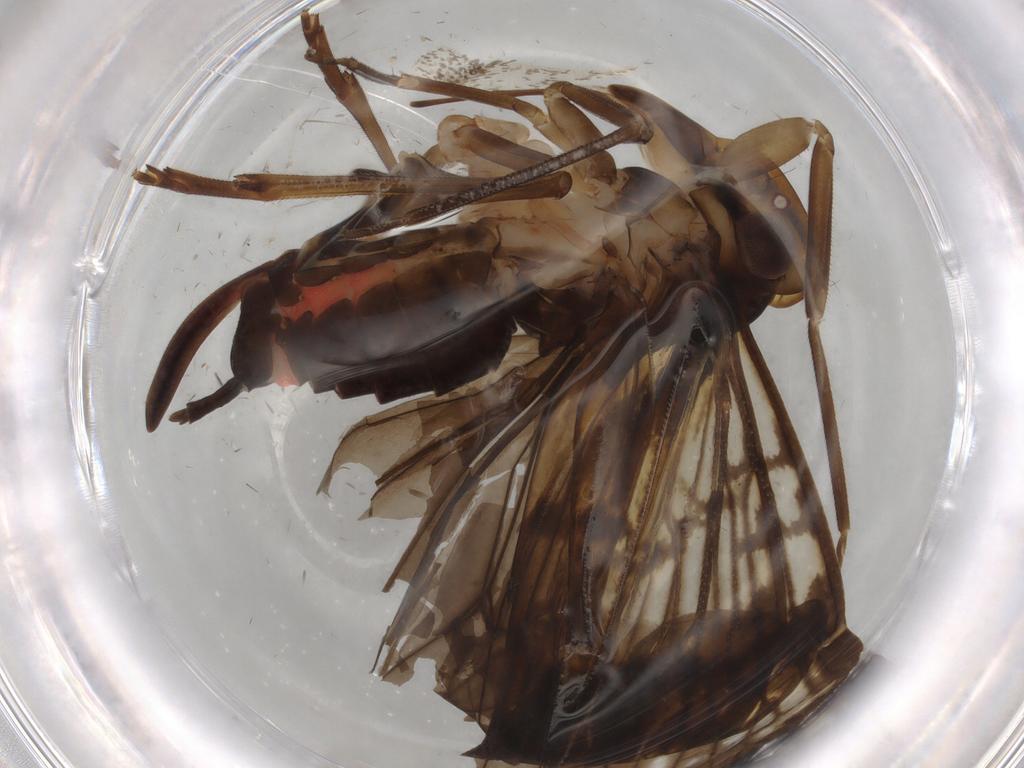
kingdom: Animalia
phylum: Arthropoda
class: Insecta
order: Hemiptera
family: Cixiidae
